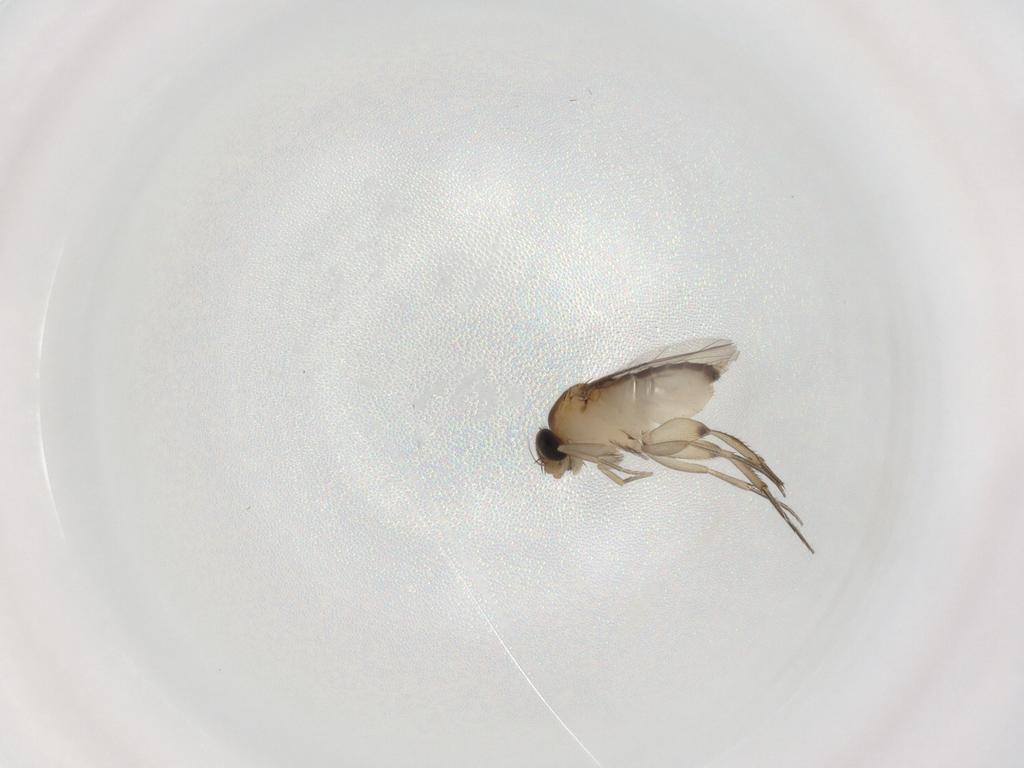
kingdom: Animalia
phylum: Arthropoda
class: Insecta
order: Diptera
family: Phoridae
